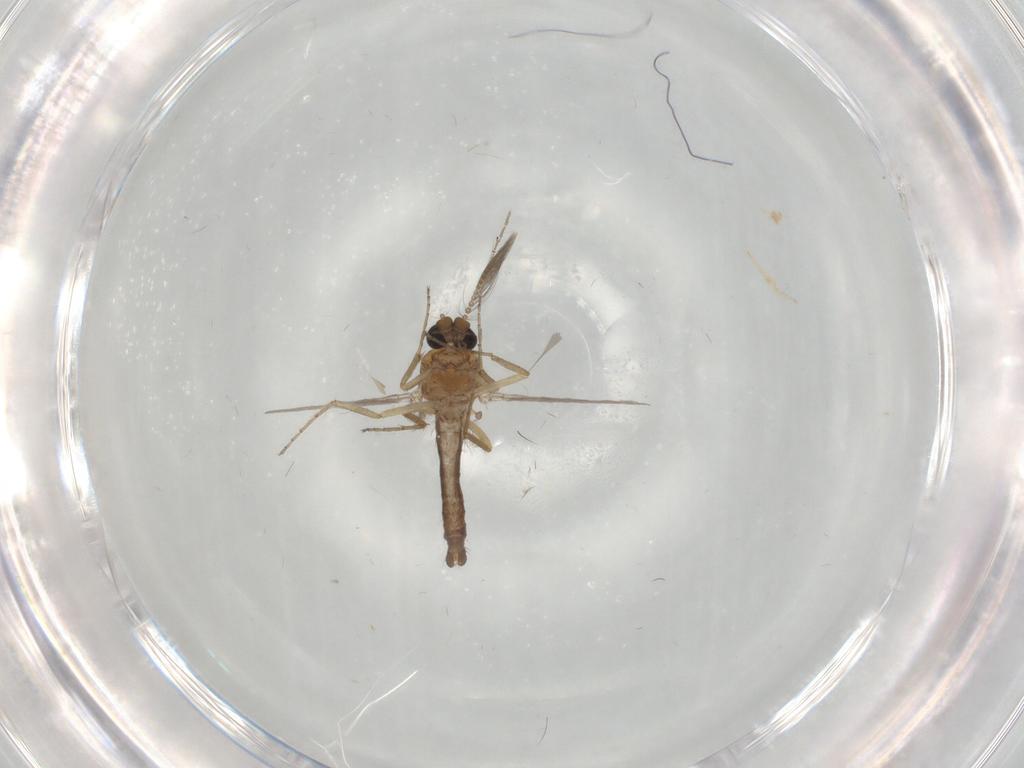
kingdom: Animalia
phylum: Arthropoda
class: Insecta
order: Diptera
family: Ceratopogonidae
